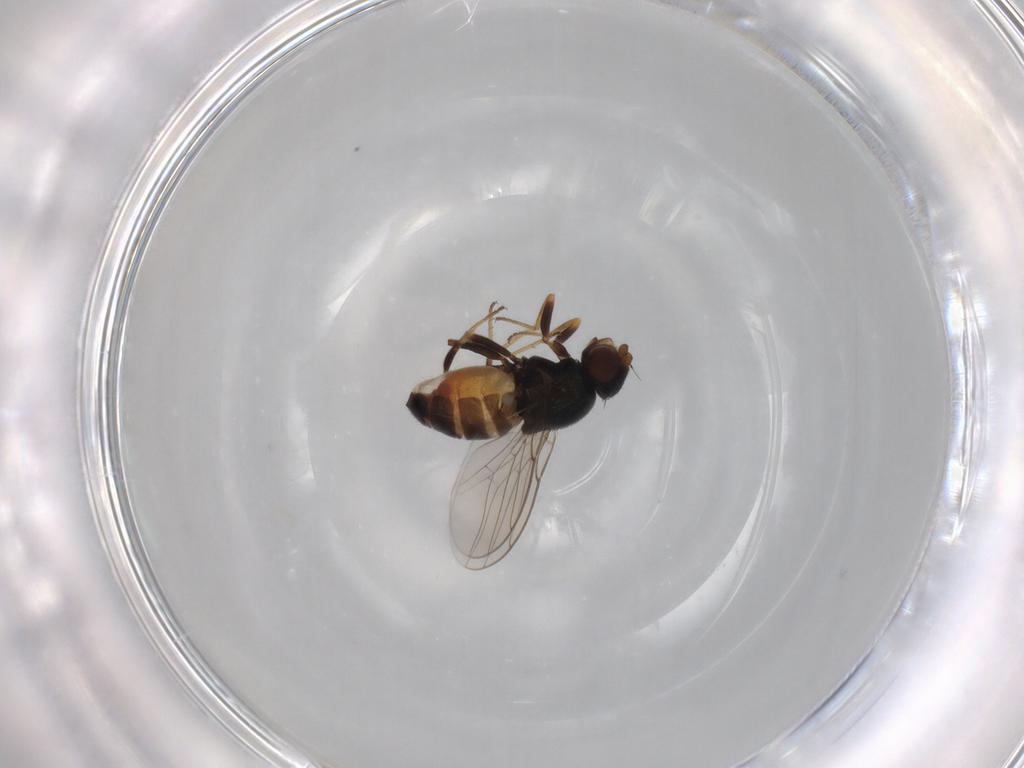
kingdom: Animalia
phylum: Arthropoda
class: Insecta
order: Diptera
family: Chloropidae
